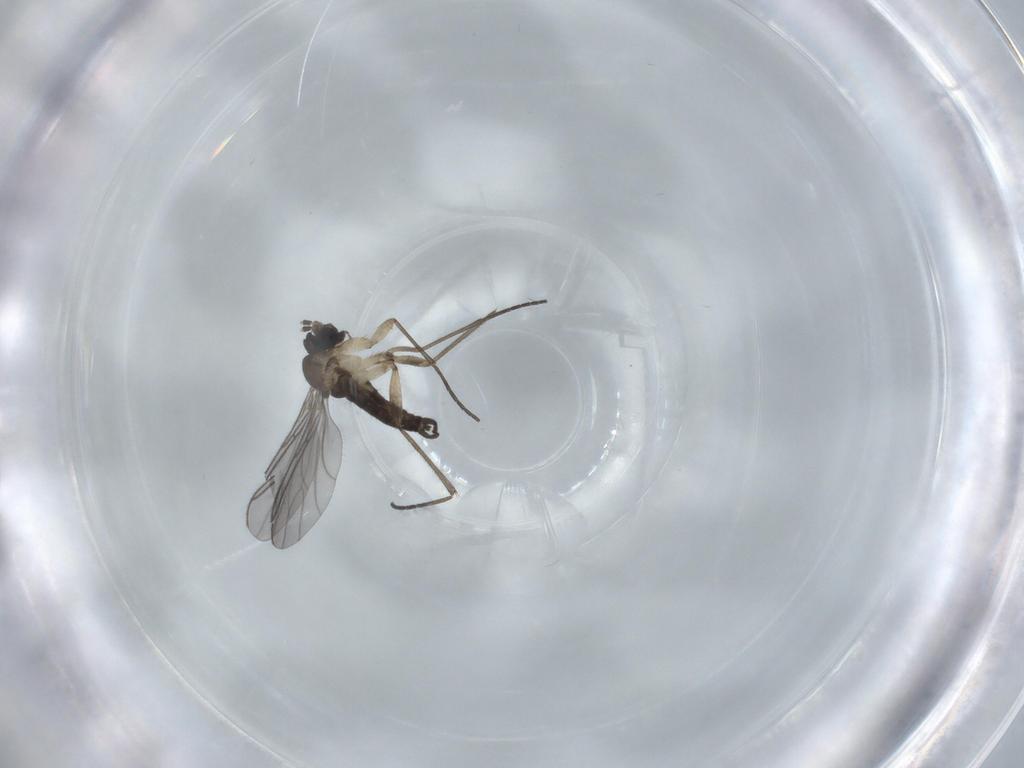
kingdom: Animalia
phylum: Arthropoda
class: Insecta
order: Diptera
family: Sciaridae
